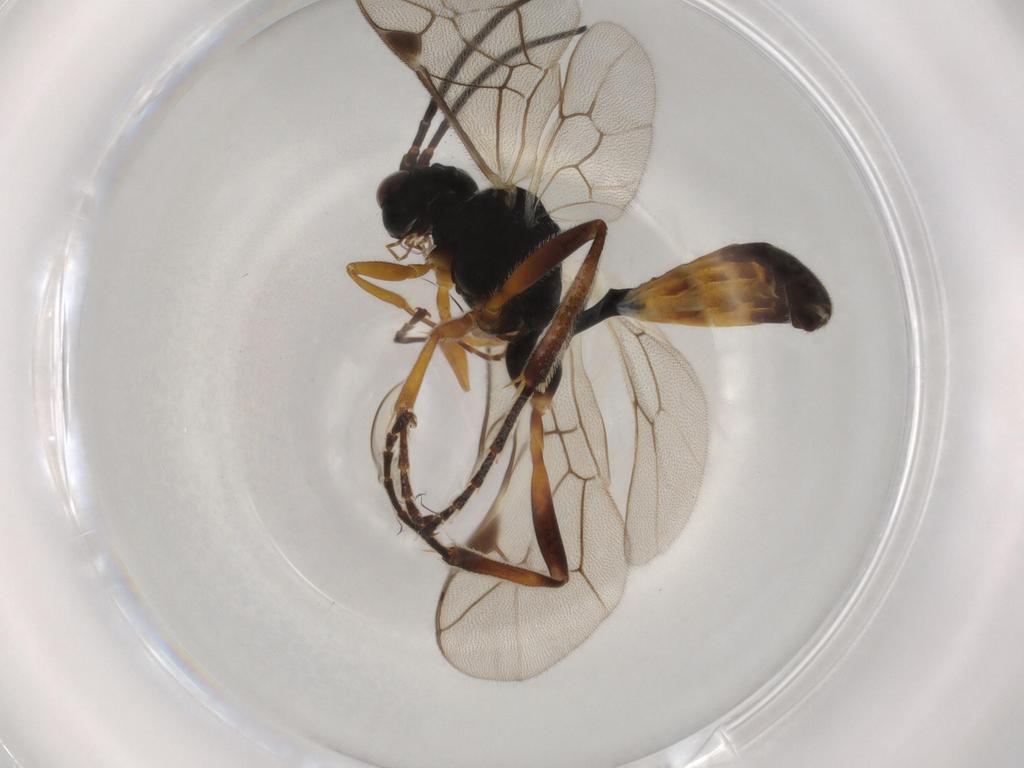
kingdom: Animalia
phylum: Arthropoda
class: Insecta
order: Hymenoptera
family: Ichneumonidae
